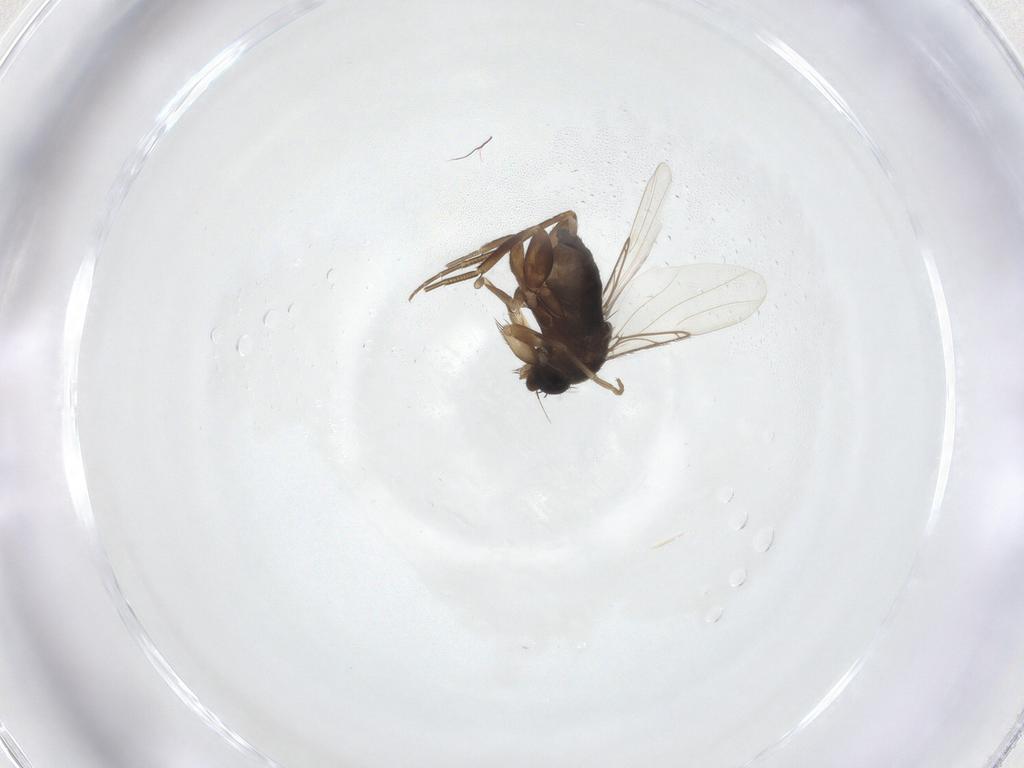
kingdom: Animalia
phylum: Arthropoda
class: Insecta
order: Diptera
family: Phoridae
